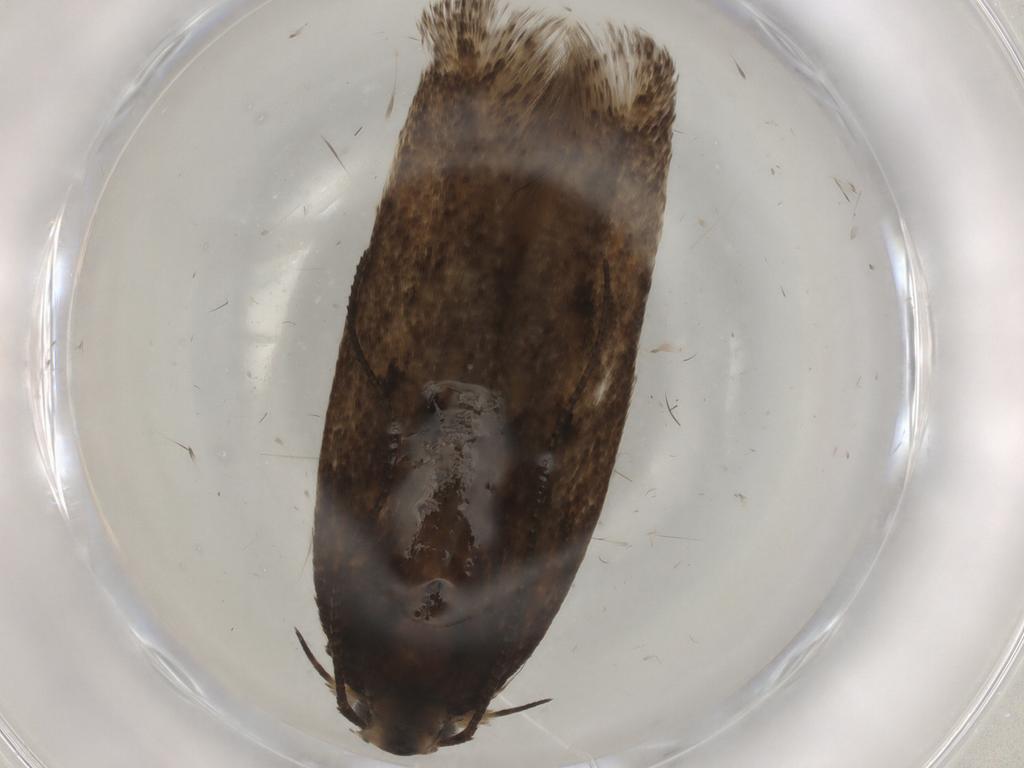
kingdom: Animalia
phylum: Arthropoda
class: Insecta
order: Lepidoptera
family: Gelechiidae
